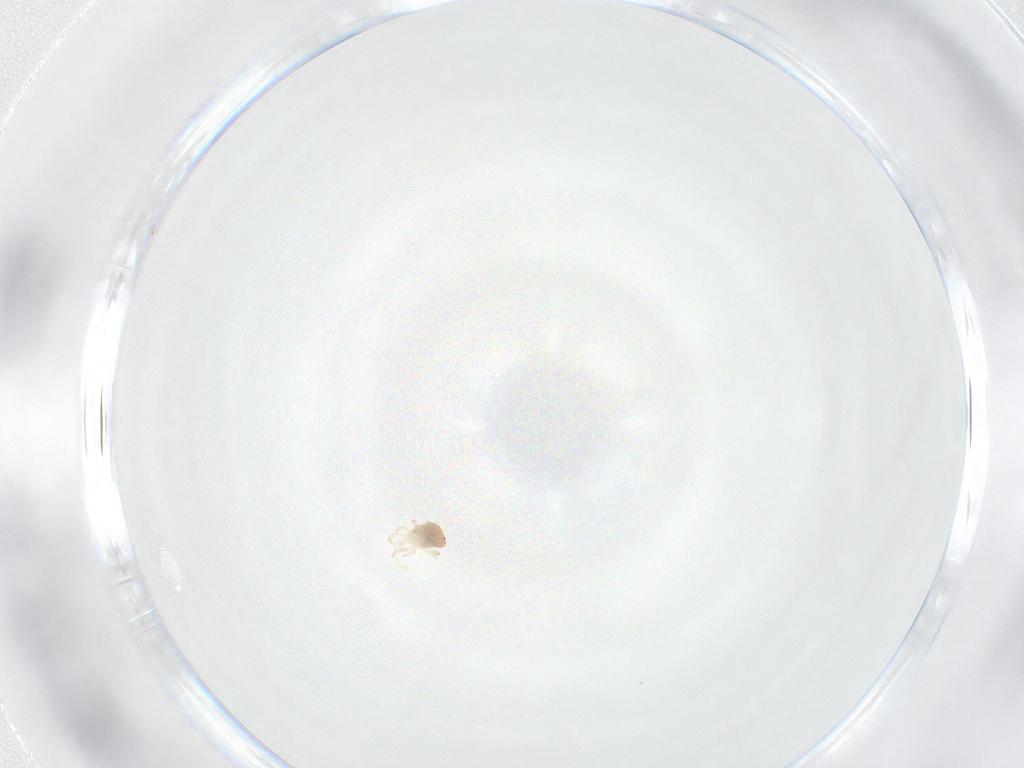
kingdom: Animalia
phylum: Arthropoda
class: Arachnida
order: Mesostigmata
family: Zerconidae
